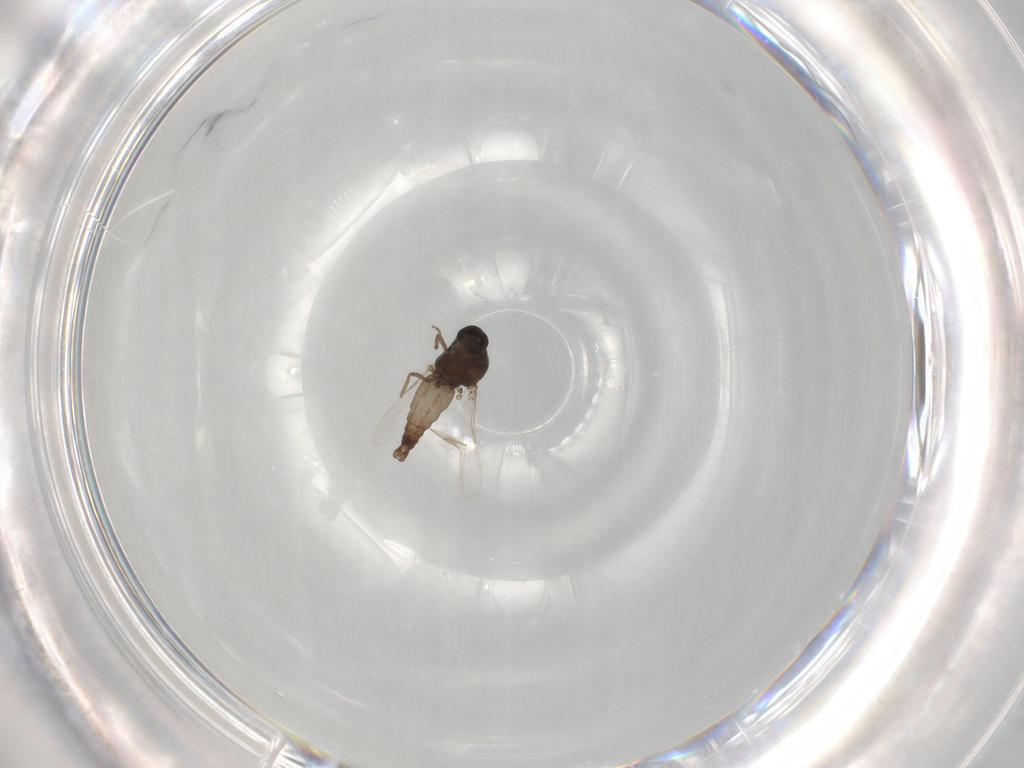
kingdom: Animalia
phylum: Arthropoda
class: Insecta
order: Diptera
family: Ceratopogonidae
